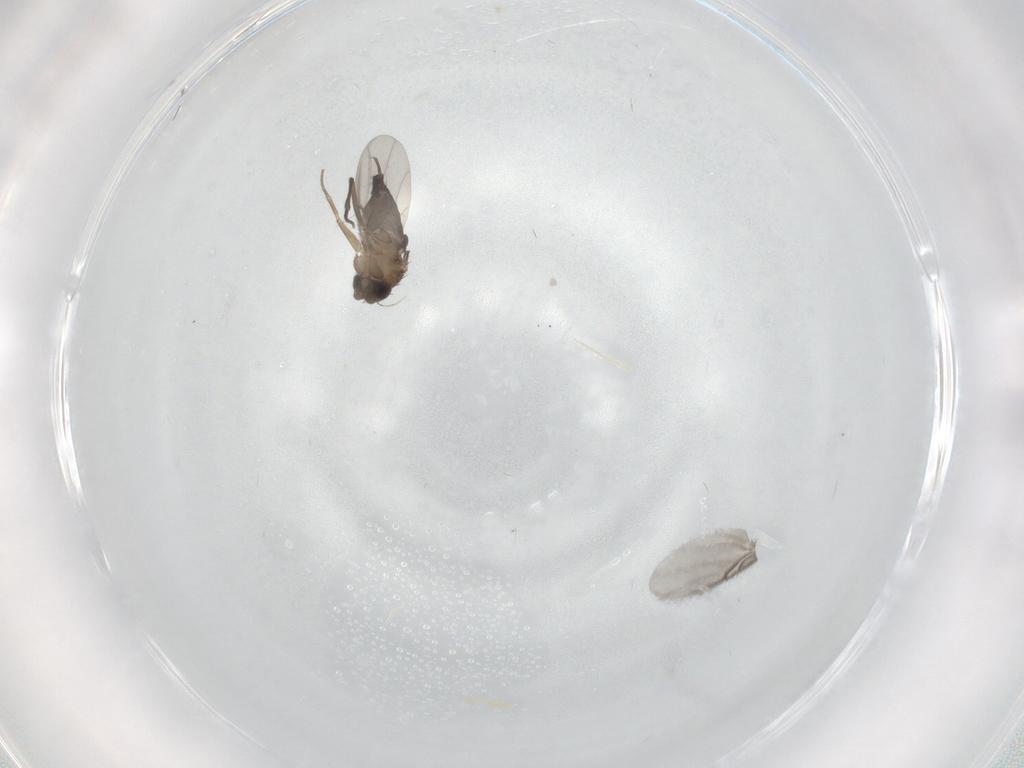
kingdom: Animalia
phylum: Arthropoda
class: Insecta
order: Diptera
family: Phoridae
